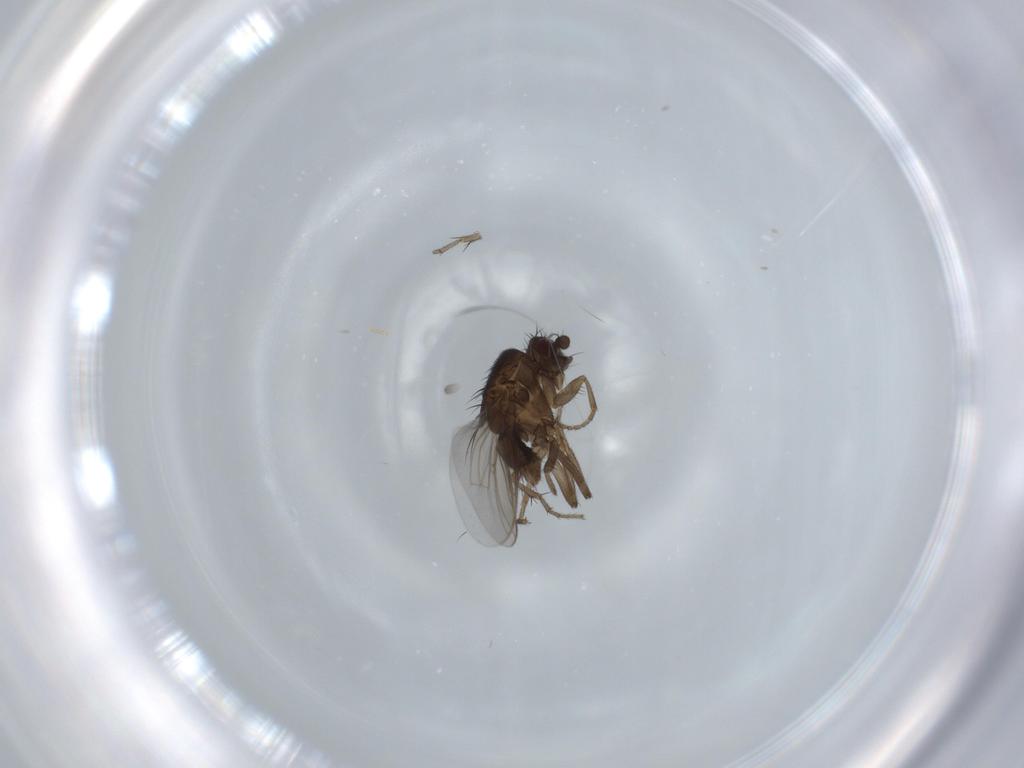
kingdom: Animalia
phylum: Arthropoda
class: Insecta
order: Diptera
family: Sphaeroceridae
